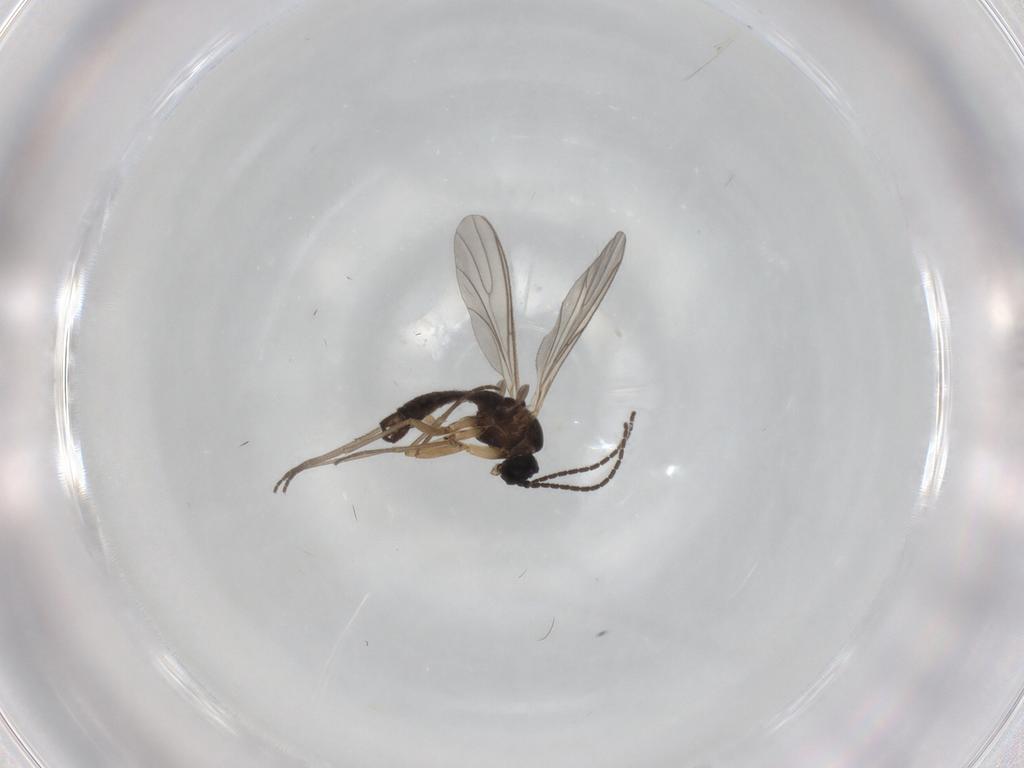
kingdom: Animalia
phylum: Arthropoda
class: Insecta
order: Diptera
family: Sciaridae
